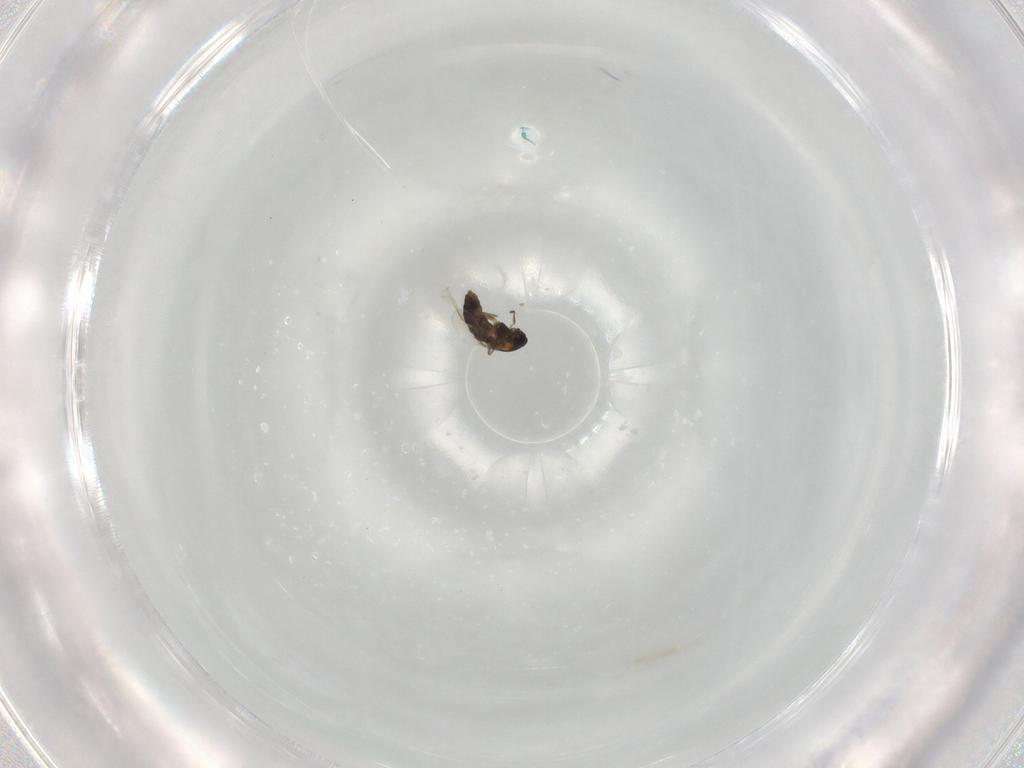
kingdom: Animalia
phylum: Arthropoda
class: Insecta
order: Diptera
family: Chironomidae
